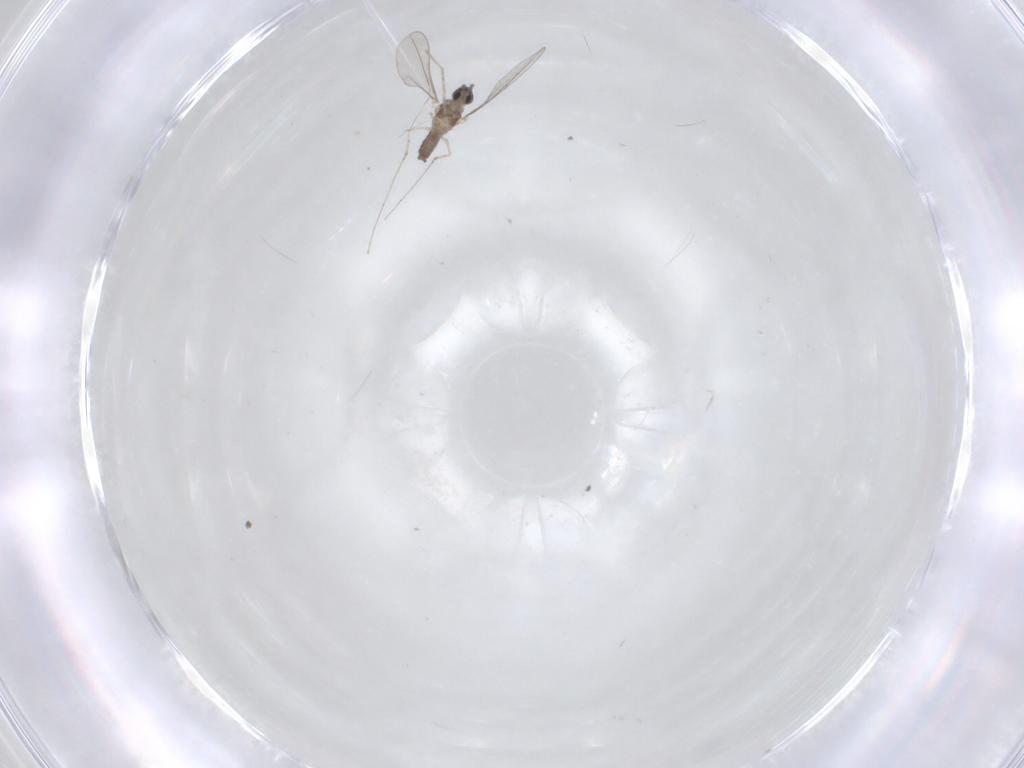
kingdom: Animalia
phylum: Arthropoda
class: Insecta
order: Diptera
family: Cecidomyiidae
